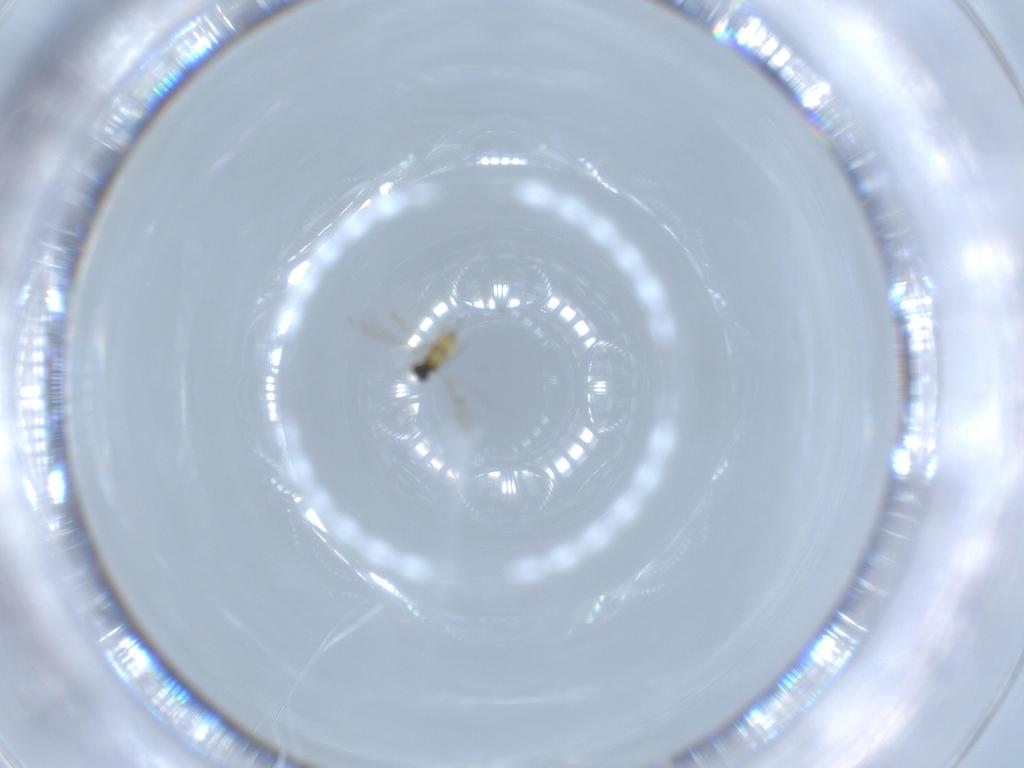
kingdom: Animalia
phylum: Arthropoda
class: Insecta
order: Hymenoptera
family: Mymaridae
